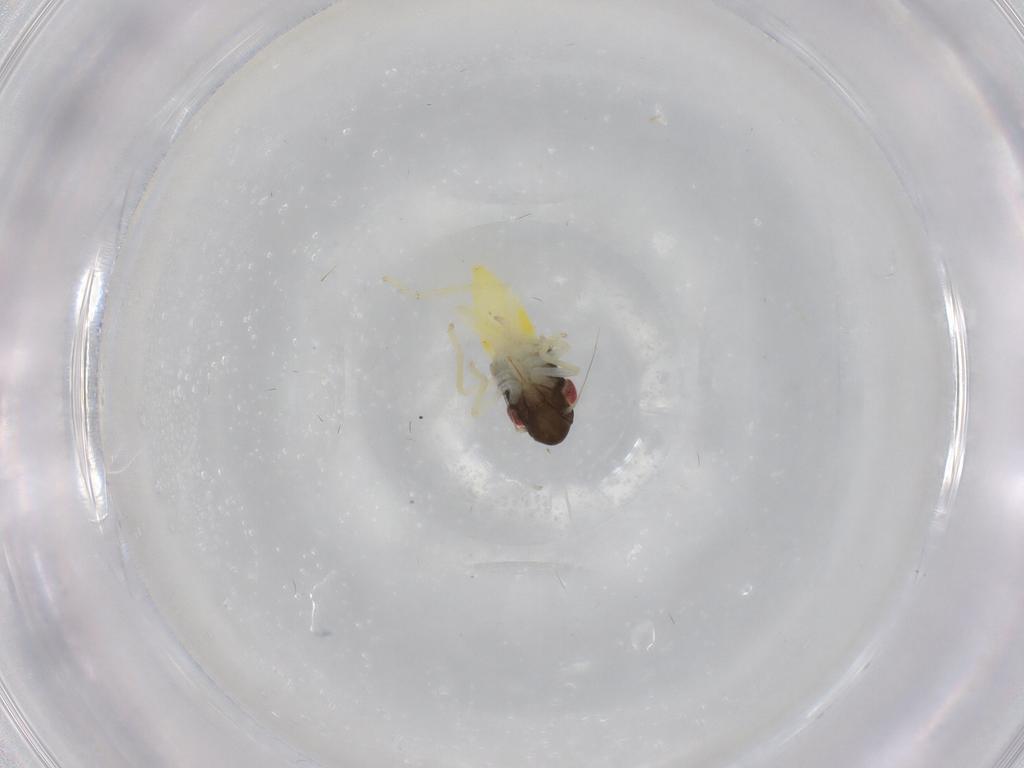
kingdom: Animalia
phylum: Arthropoda
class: Insecta
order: Hemiptera
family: Cicadellidae
